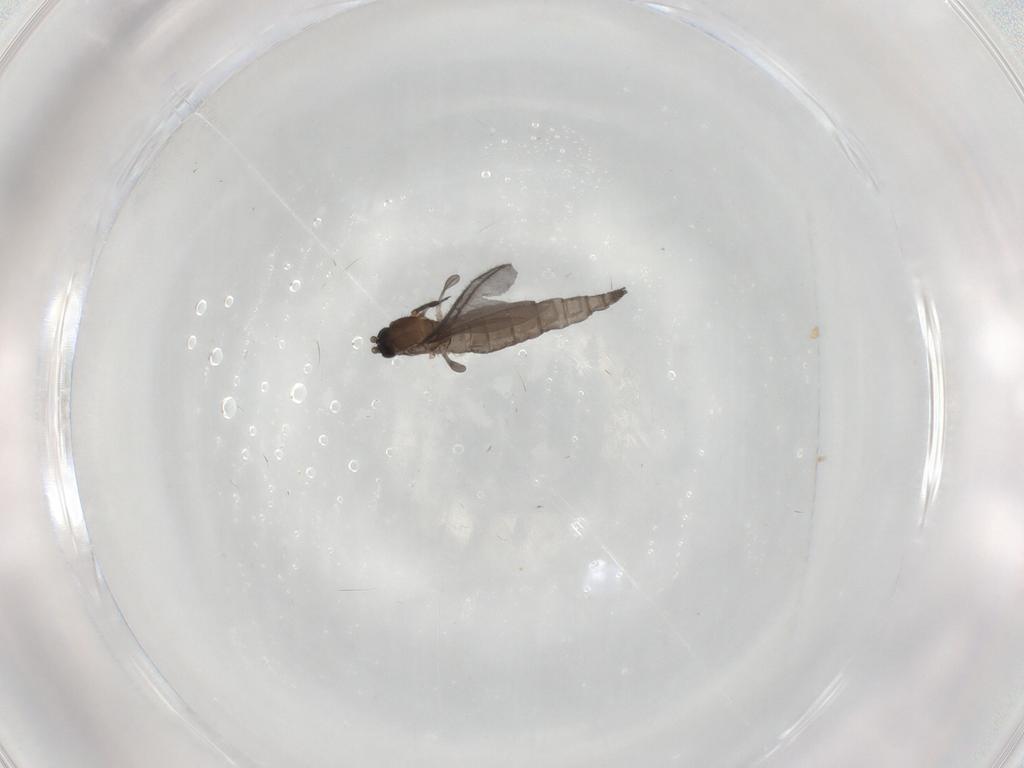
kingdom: Animalia
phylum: Arthropoda
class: Insecta
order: Diptera
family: Sciaridae
